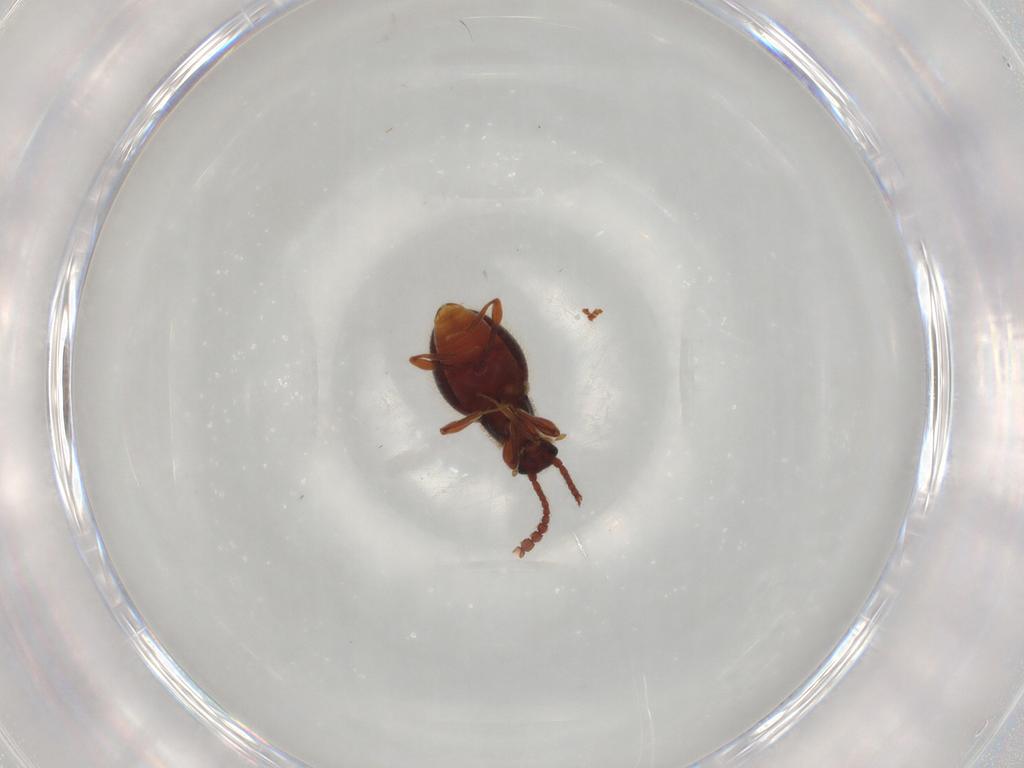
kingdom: Animalia
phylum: Arthropoda
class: Insecta
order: Coleoptera
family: Staphylinidae
